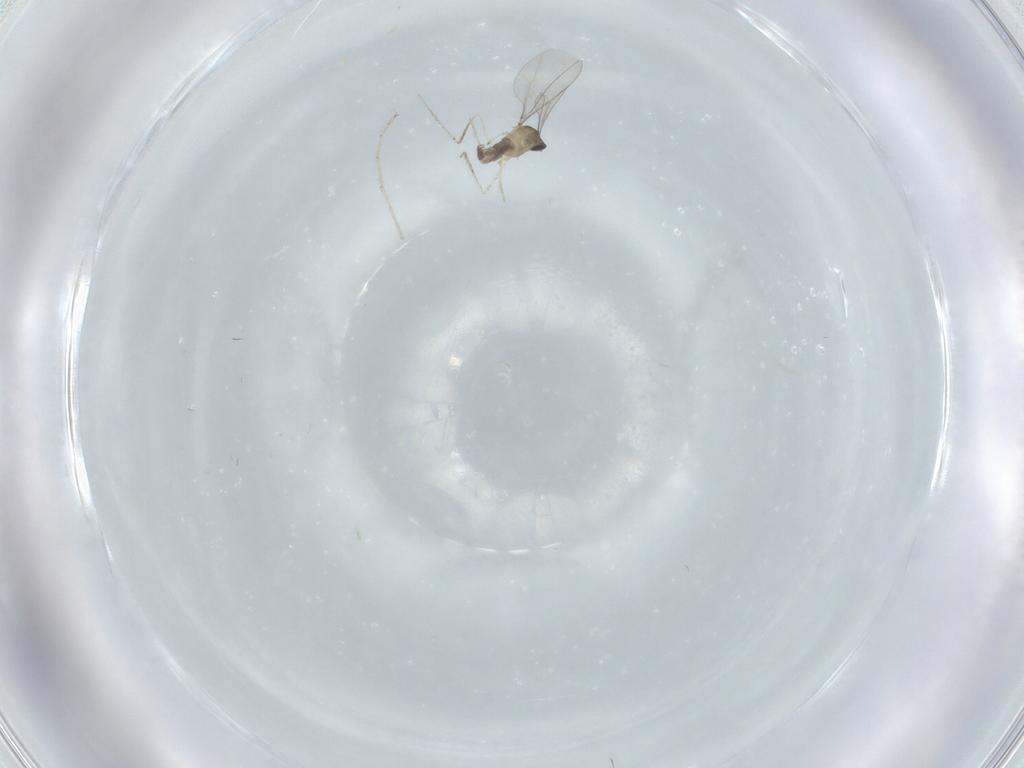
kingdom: Animalia
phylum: Arthropoda
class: Insecta
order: Diptera
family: Cecidomyiidae
